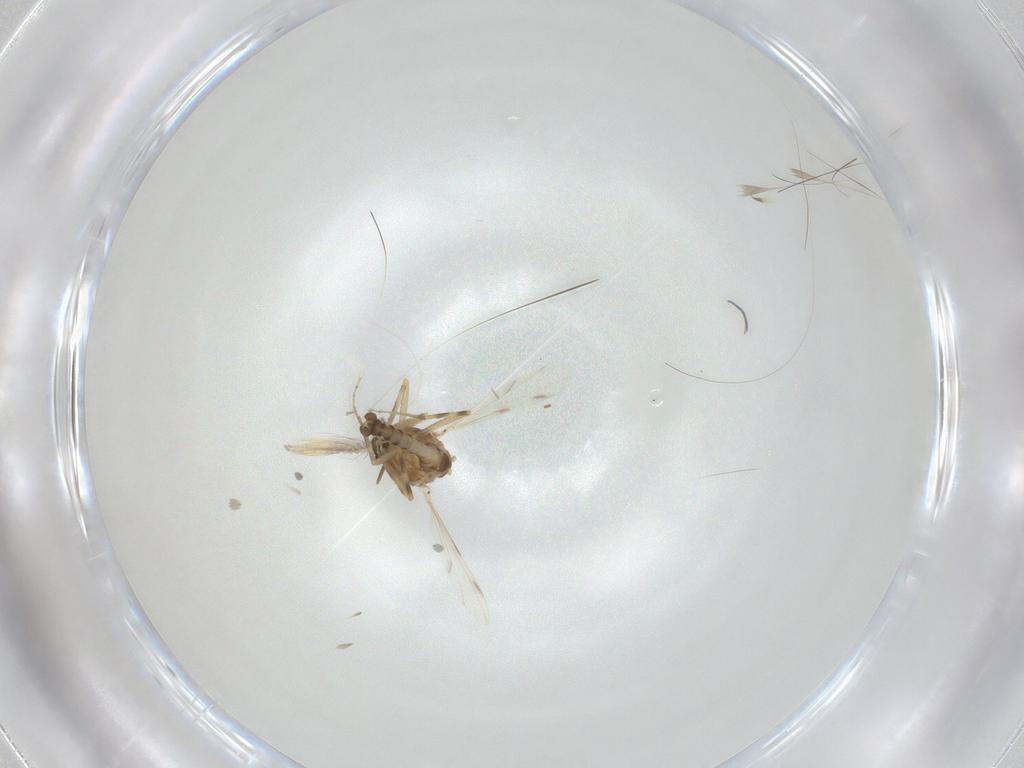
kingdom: Animalia
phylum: Arthropoda
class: Insecta
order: Diptera
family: Ceratopogonidae
